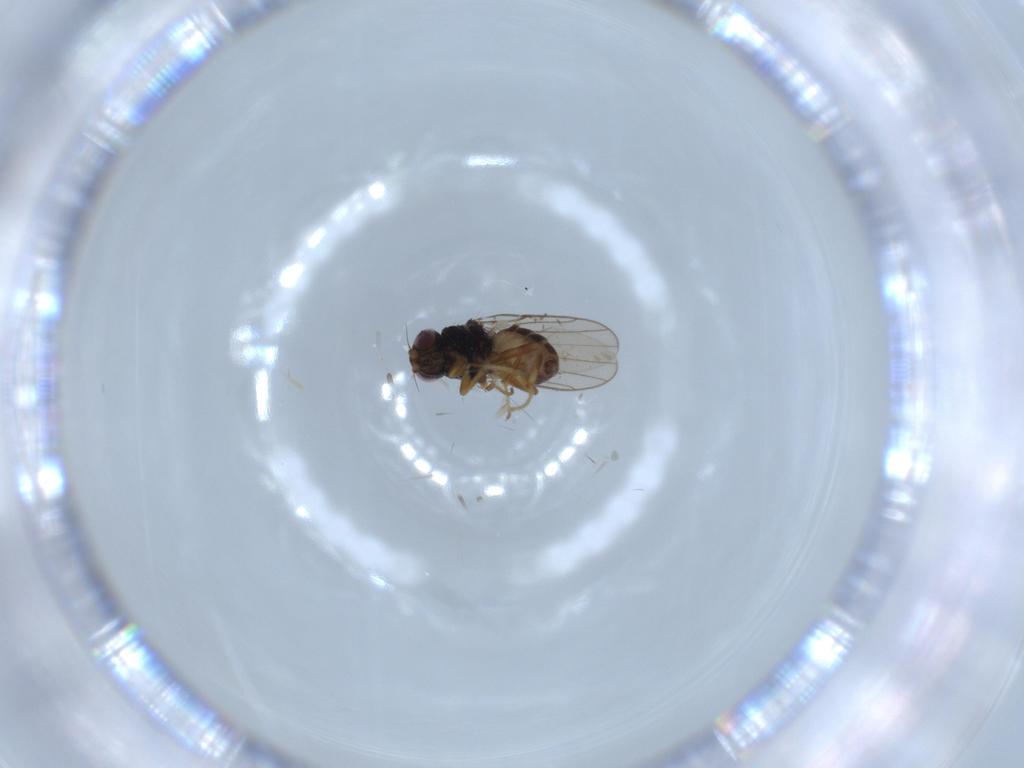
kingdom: Animalia
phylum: Arthropoda
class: Insecta
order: Diptera
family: Chloropidae
